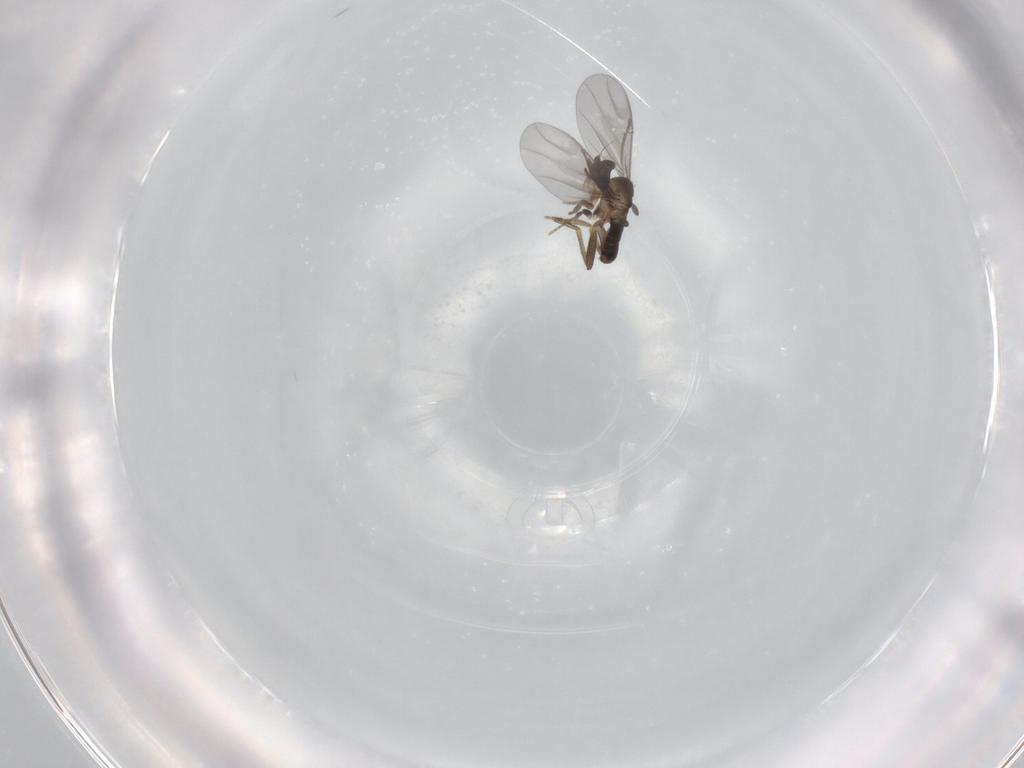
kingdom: Animalia
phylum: Arthropoda
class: Insecta
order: Diptera
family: Phoridae
